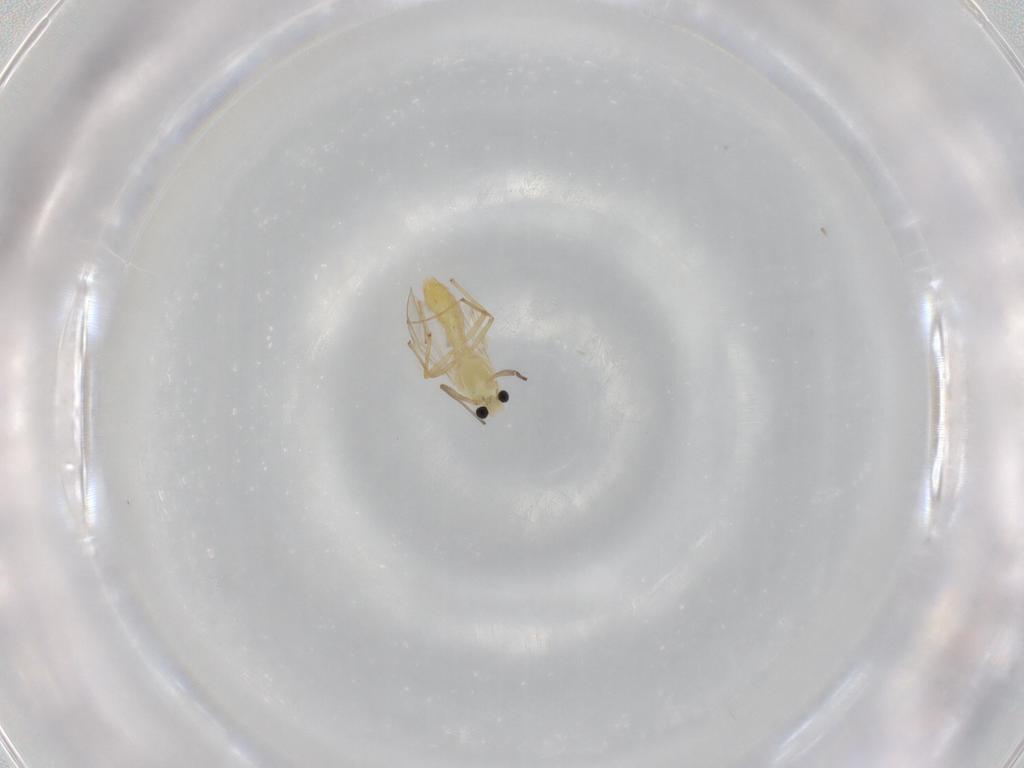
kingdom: Animalia
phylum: Arthropoda
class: Insecta
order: Diptera
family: Chironomidae
